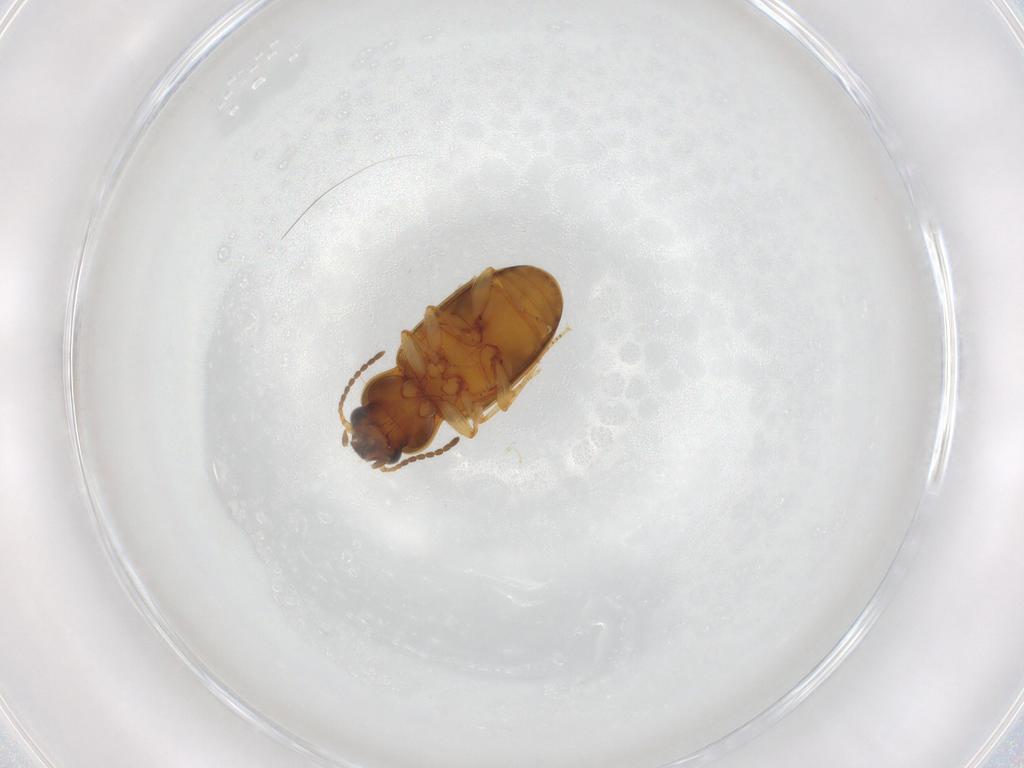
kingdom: Animalia
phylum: Arthropoda
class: Insecta
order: Coleoptera
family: Carabidae
